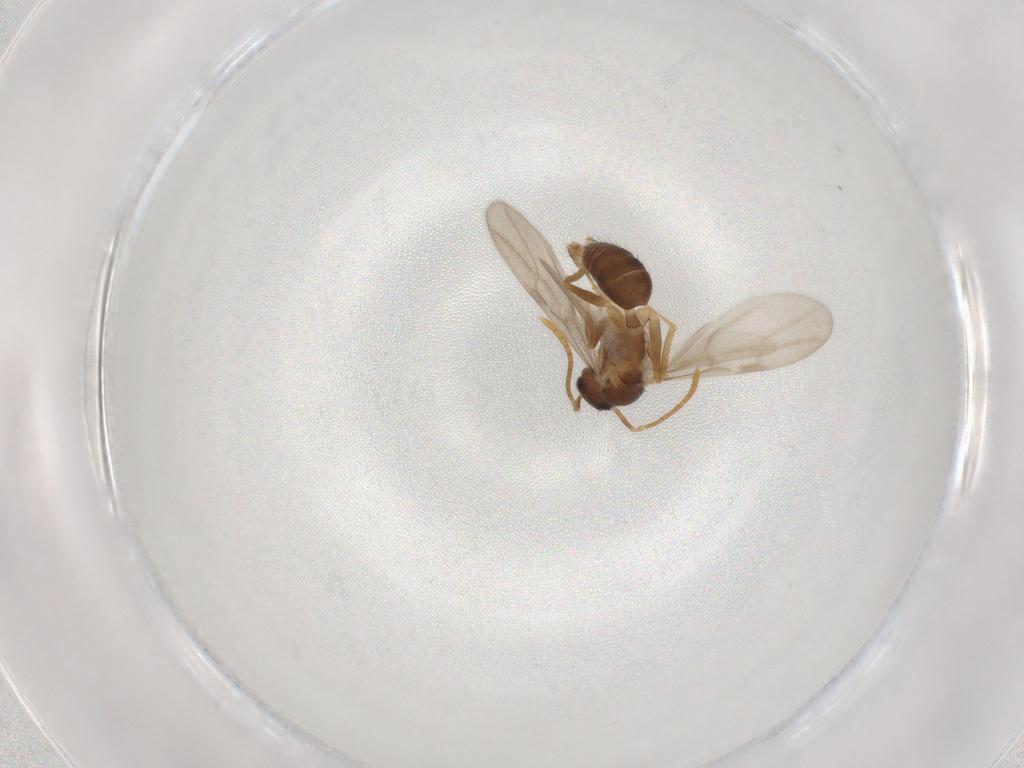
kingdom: Animalia
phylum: Arthropoda
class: Insecta
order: Hymenoptera
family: Formicidae
